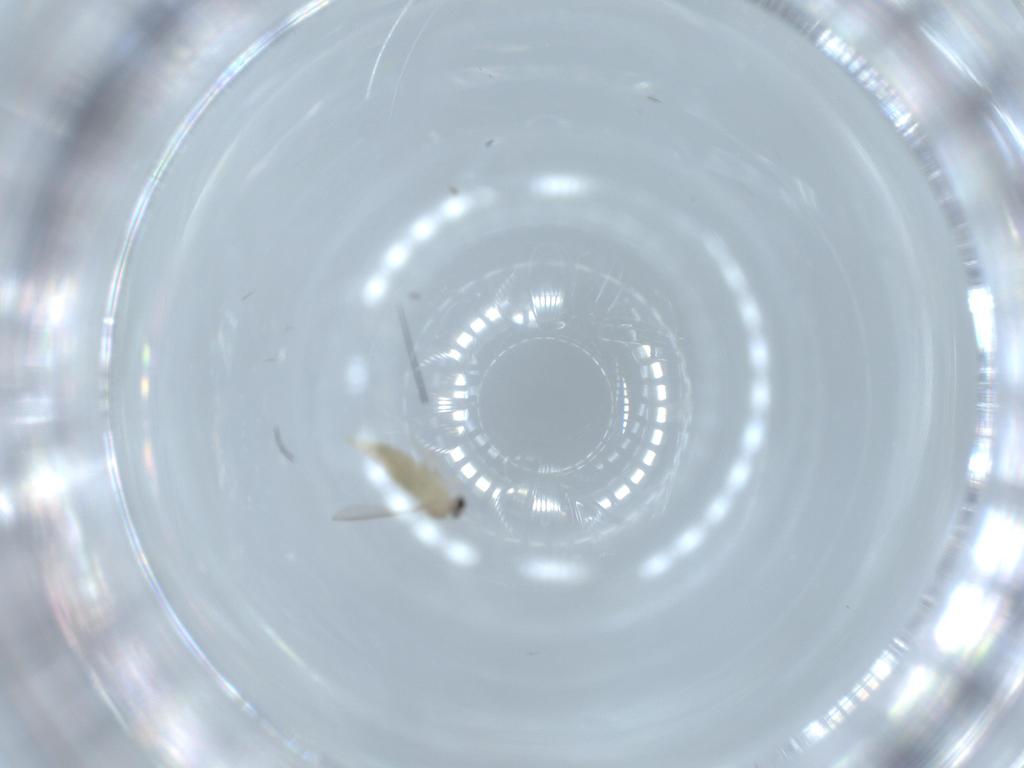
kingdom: Animalia
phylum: Arthropoda
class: Insecta
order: Diptera
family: Cecidomyiidae
